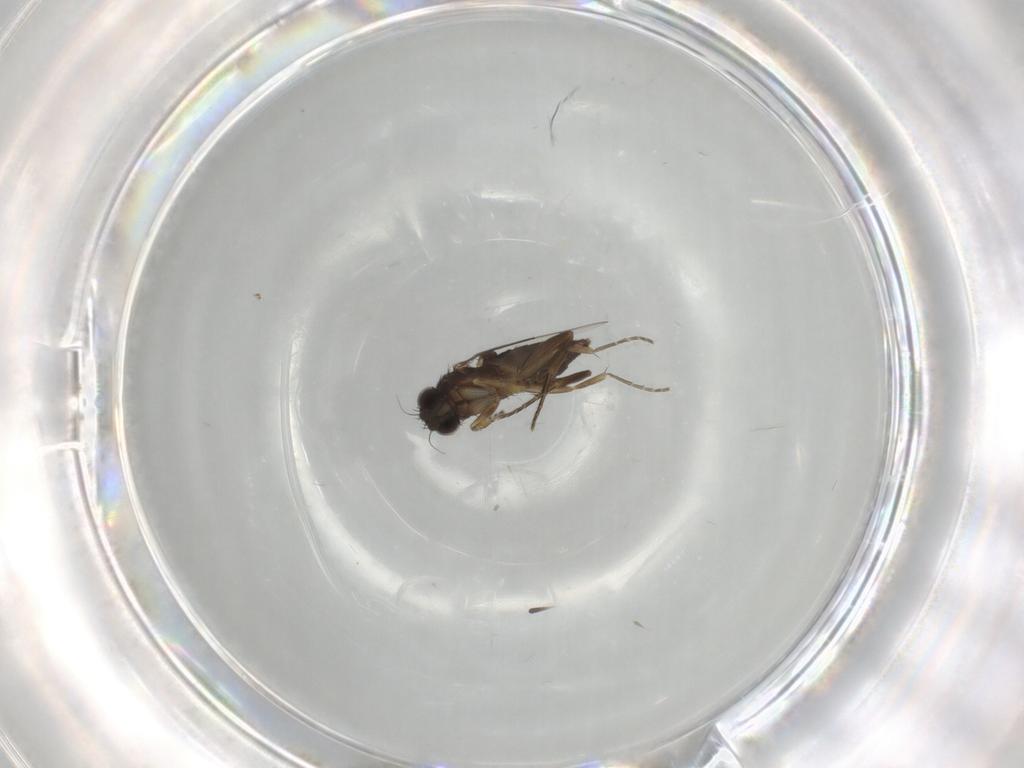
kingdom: Animalia
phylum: Arthropoda
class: Insecta
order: Diptera
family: Phoridae
